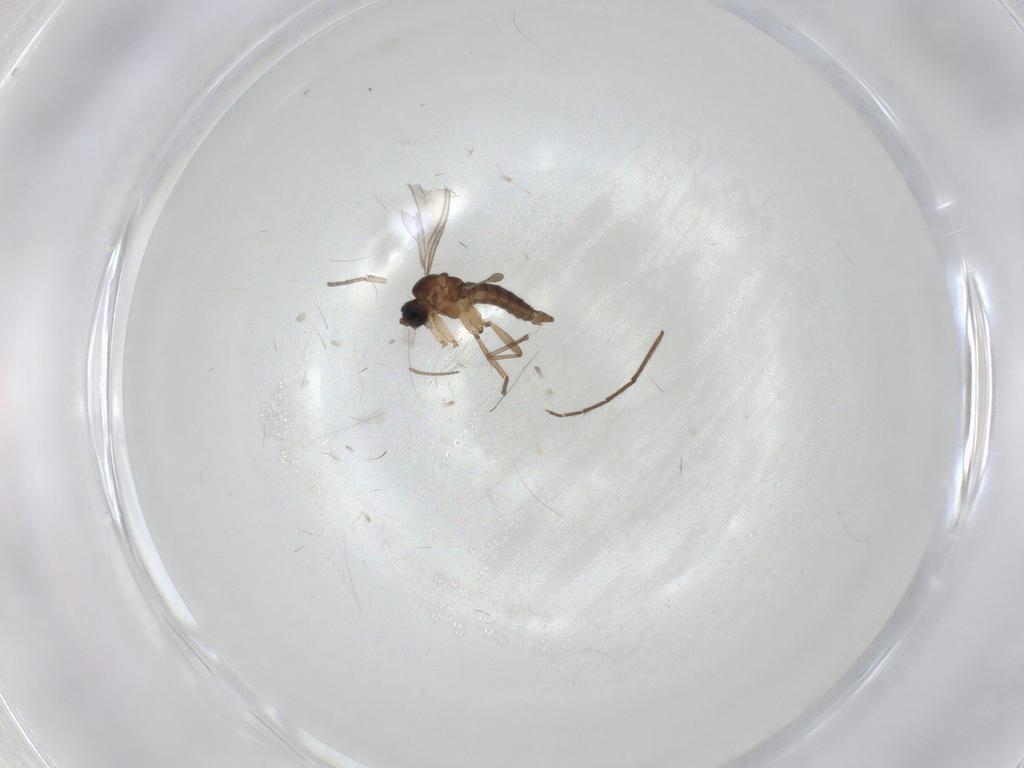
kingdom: Animalia
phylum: Arthropoda
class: Insecta
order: Diptera
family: Sciaridae
